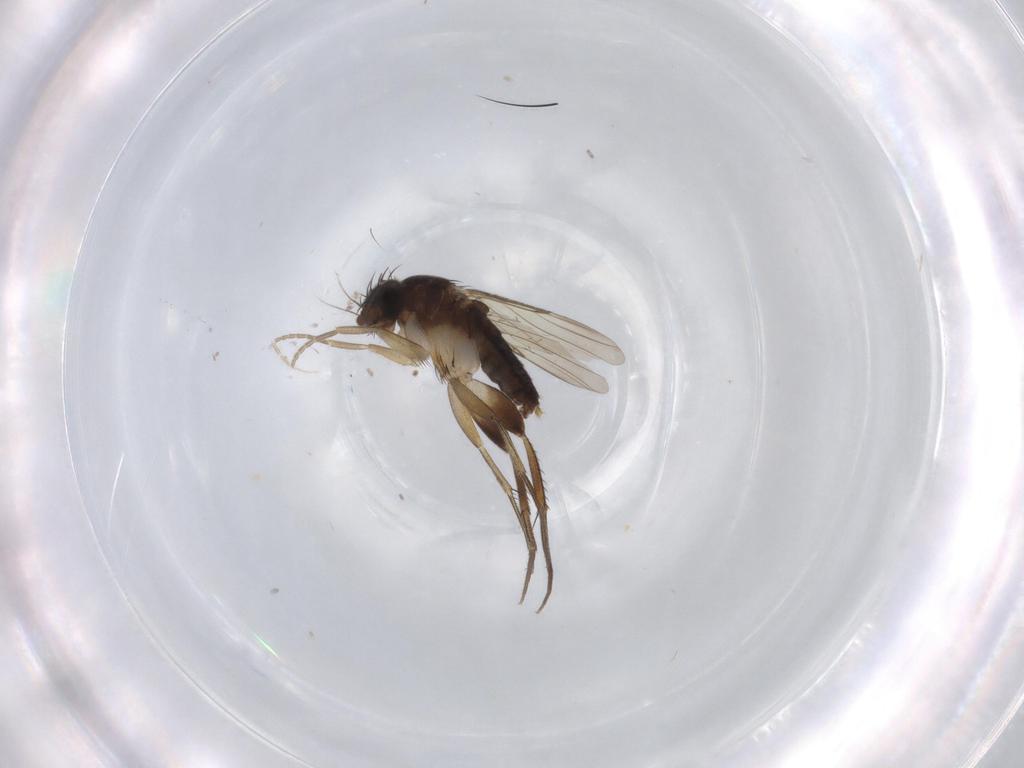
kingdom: Animalia
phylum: Arthropoda
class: Insecta
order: Diptera
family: Phoridae
